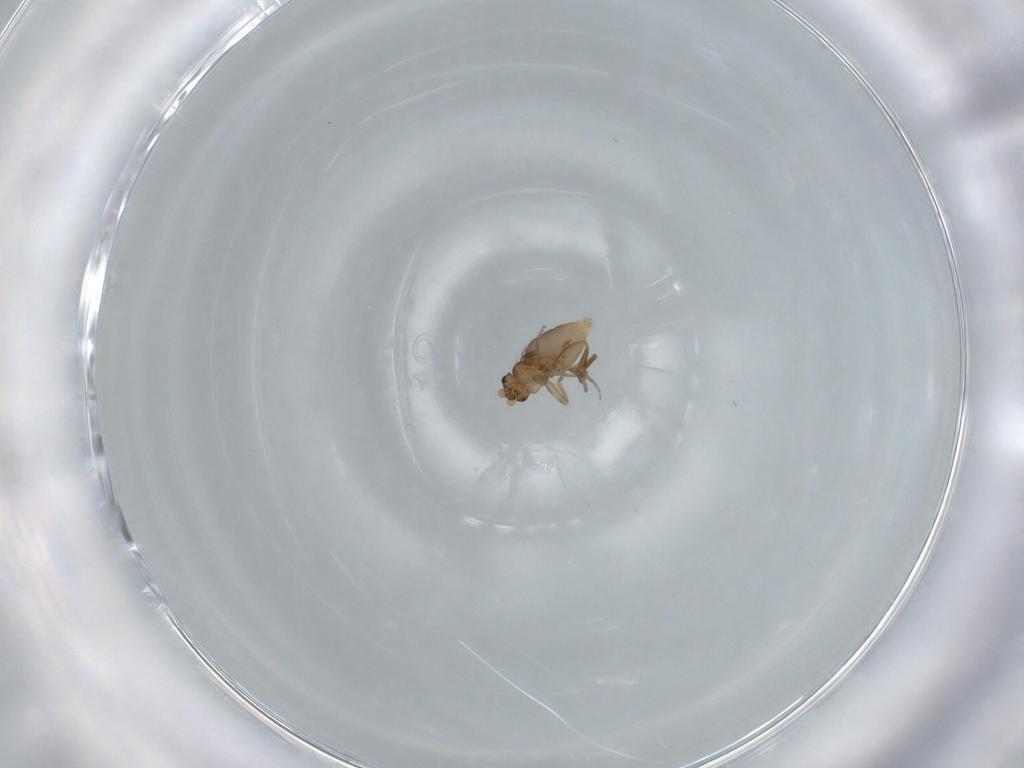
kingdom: Animalia
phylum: Arthropoda
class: Insecta
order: Diptera
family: Phoridae
